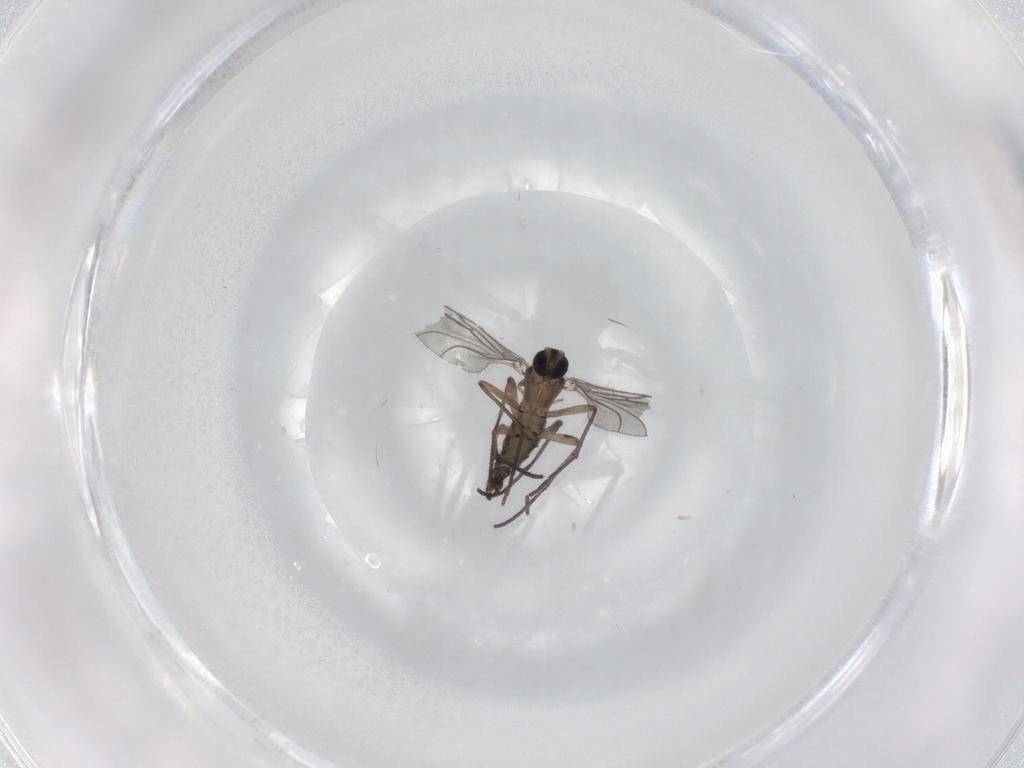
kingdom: Animalia
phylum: Arthropoda
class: Insecta
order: Diptera
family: Sciaridae
